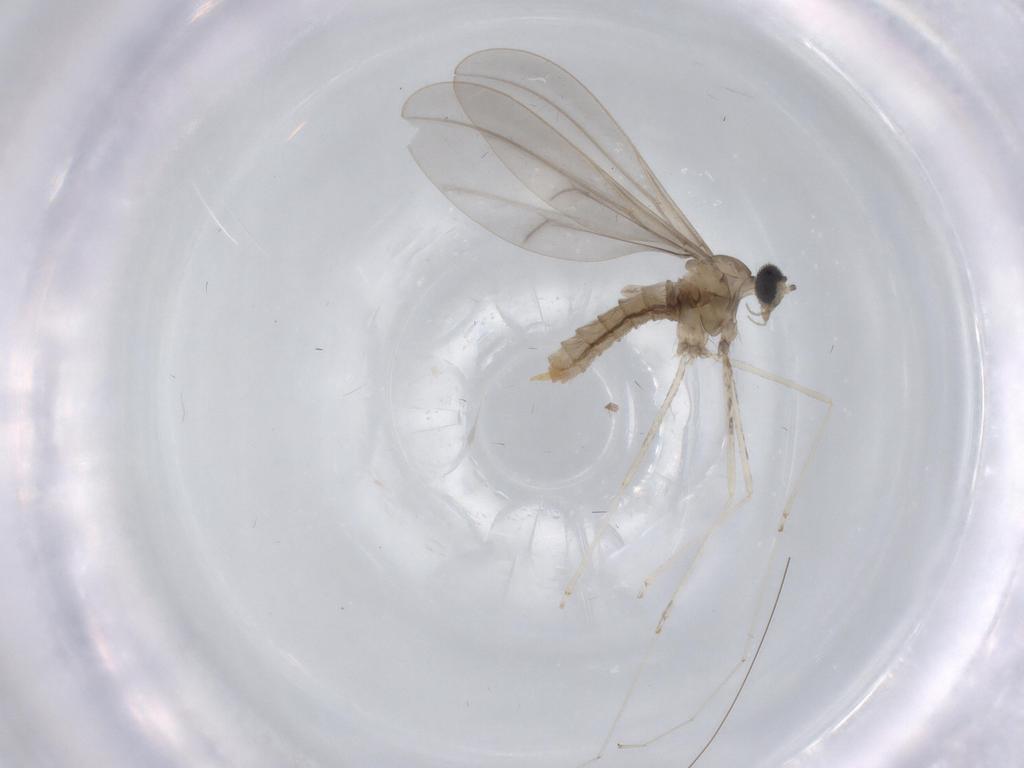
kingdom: Animalia
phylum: Arthropoda
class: Insecta
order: Diptera
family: Cecidomyiidae
